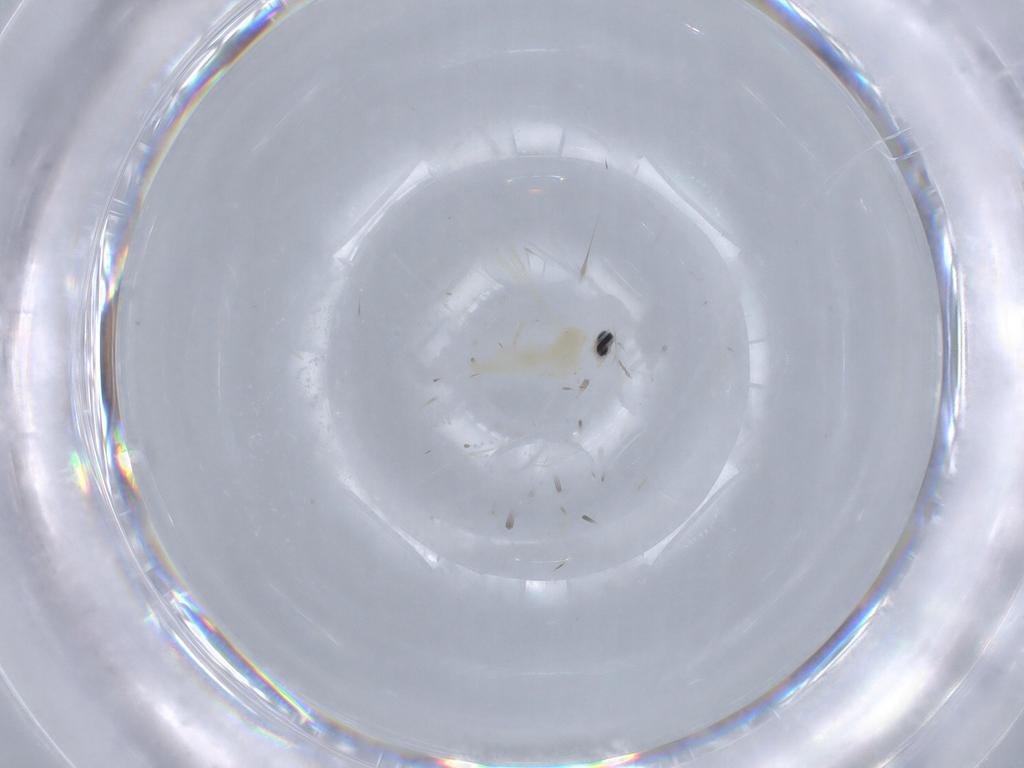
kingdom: Animalia
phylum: Arthropoda
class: Insecta
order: Diptera
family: Cecidomyiidae
